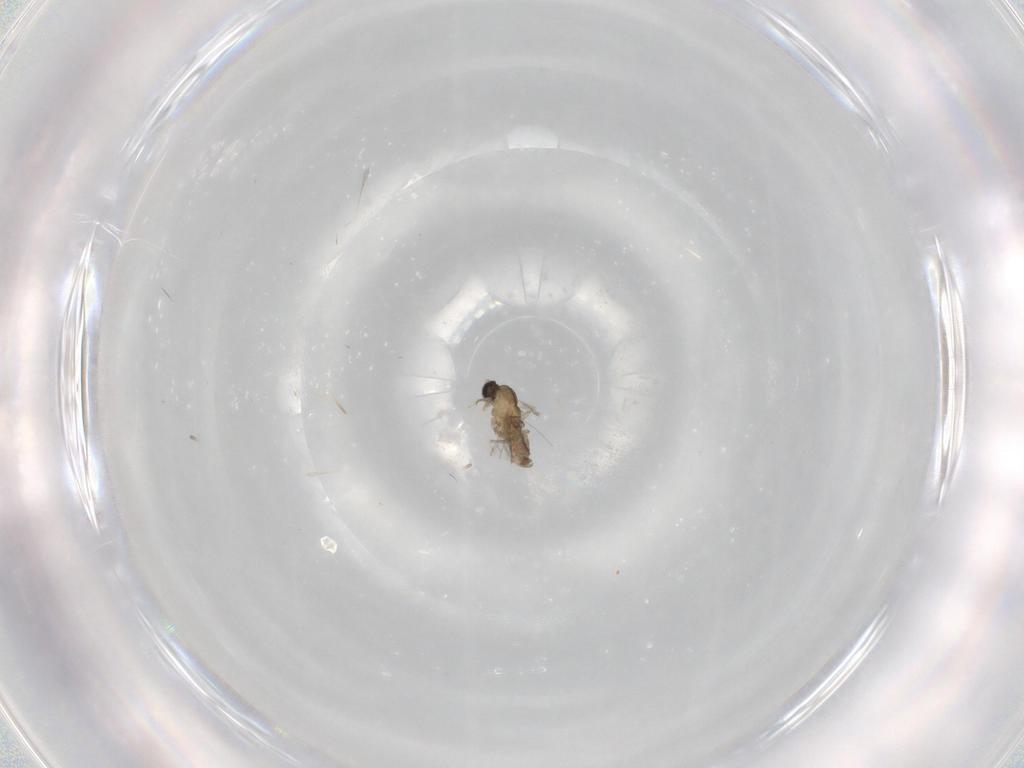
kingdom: Animalia
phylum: Arthropoda
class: Insecta
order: Diptera
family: Cecidomyiidae
